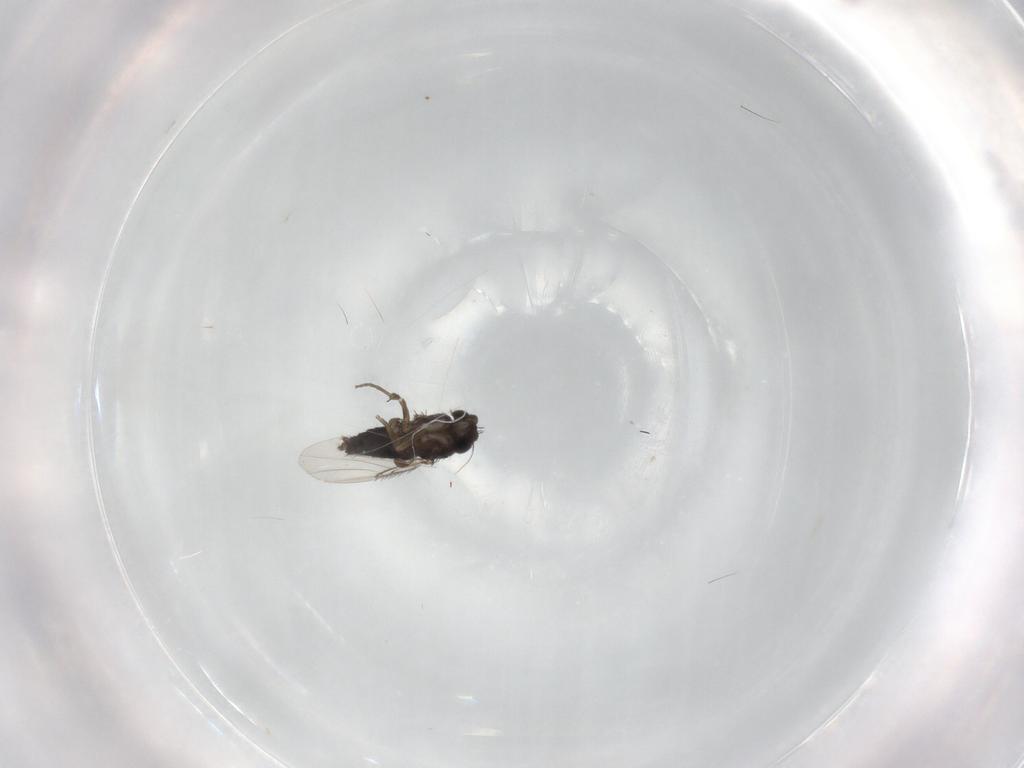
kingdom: Animalia
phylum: Arthropoda
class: Insecta
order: Diptera
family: Phoridae
